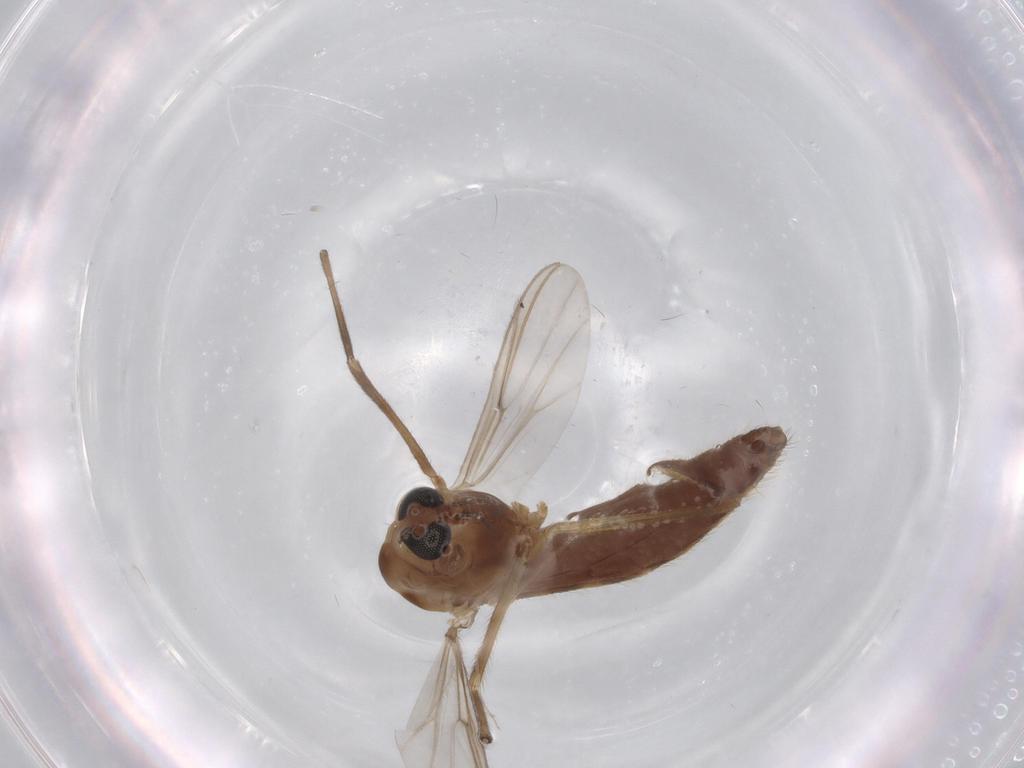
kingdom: Animalia
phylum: Arthropoda
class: Insecta
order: Diptera
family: Chironomidae
